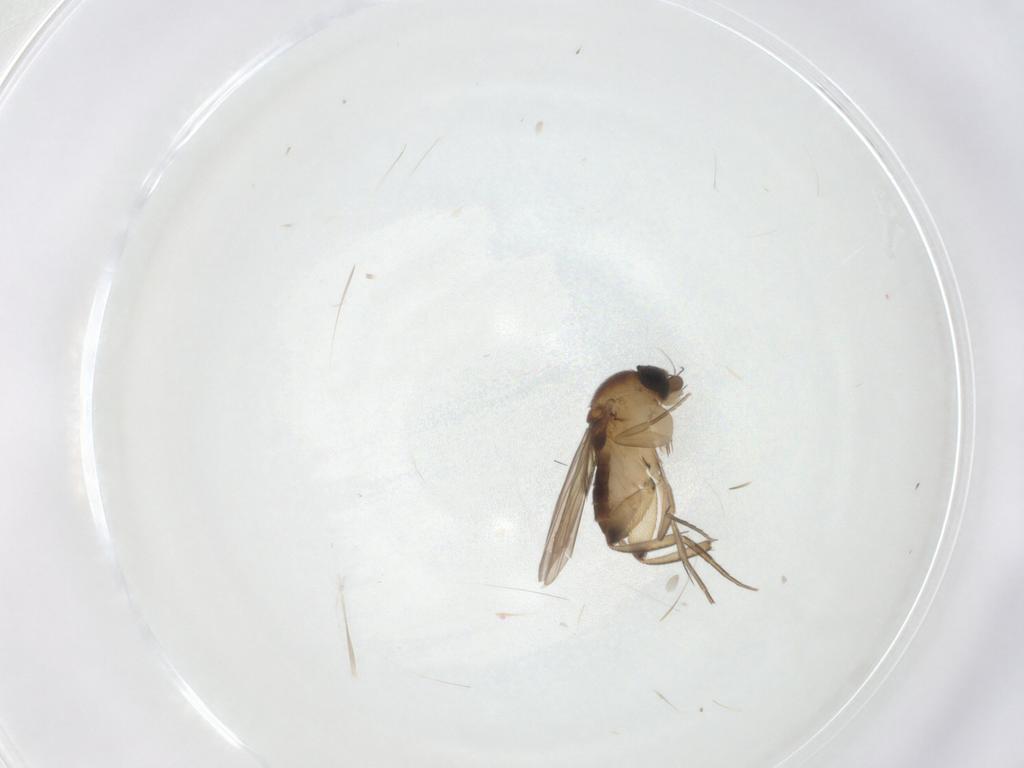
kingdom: Animalia
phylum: Arthropoda
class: Insecta
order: Diptera
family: Phoridae
